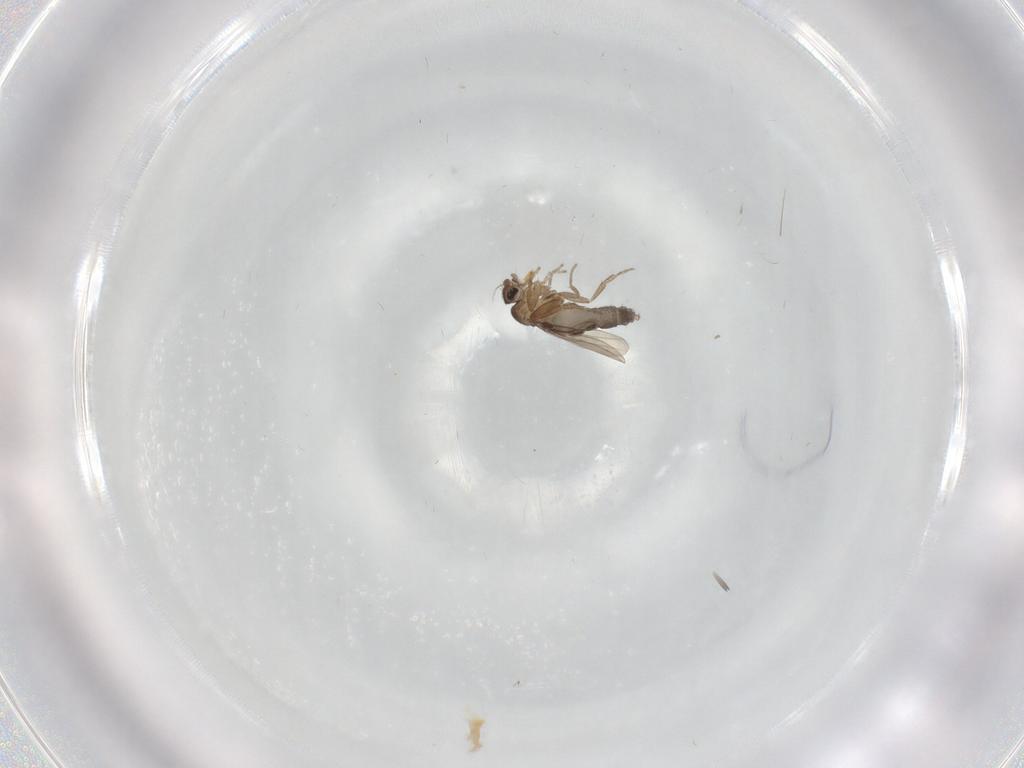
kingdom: Animalia
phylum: Arthropoda
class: Insecta
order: Diptera
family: Phoridae
